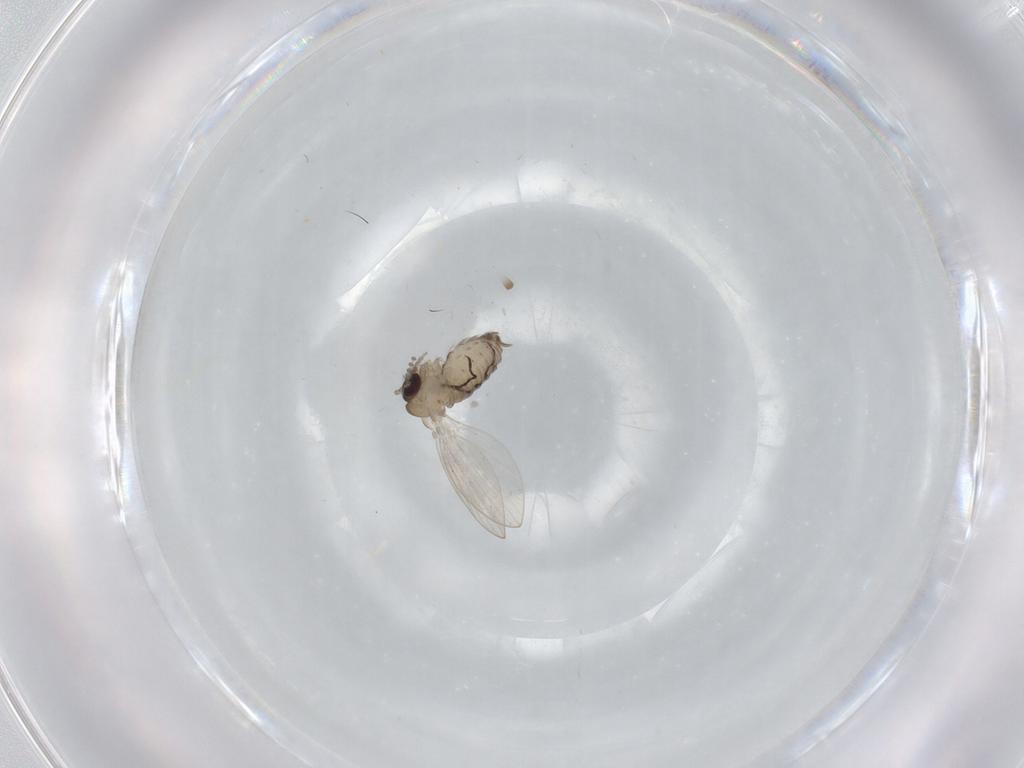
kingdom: Animalia
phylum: Arthropoda
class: Insecta
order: Diptera
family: Psychodidae
